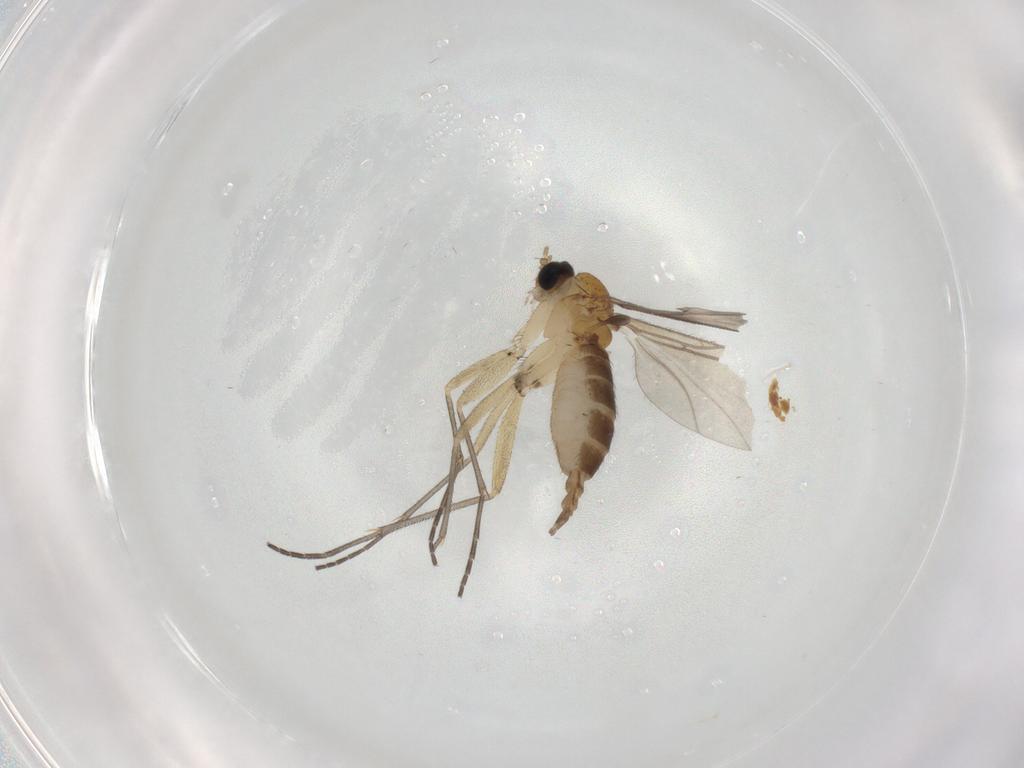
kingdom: Animalia
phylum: Arthropoda
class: Insecta
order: Diptera
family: Sciaridae
